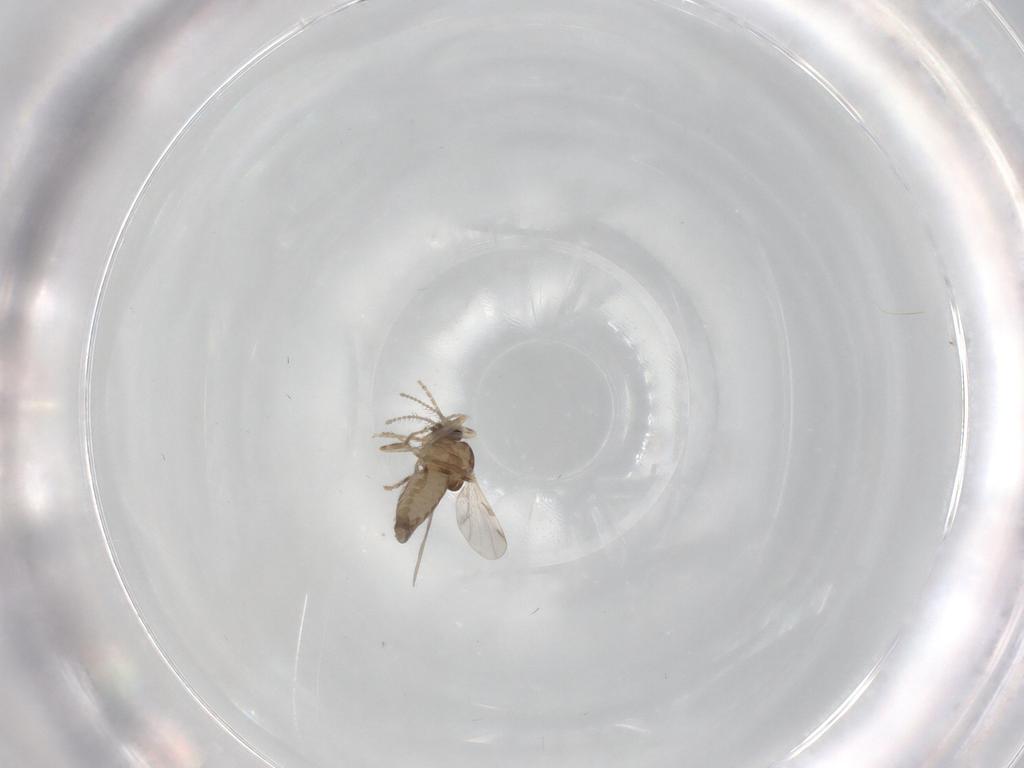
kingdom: Animalia
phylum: Arthropoda
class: Insecta
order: Diptera
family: Ceratopogonidae
